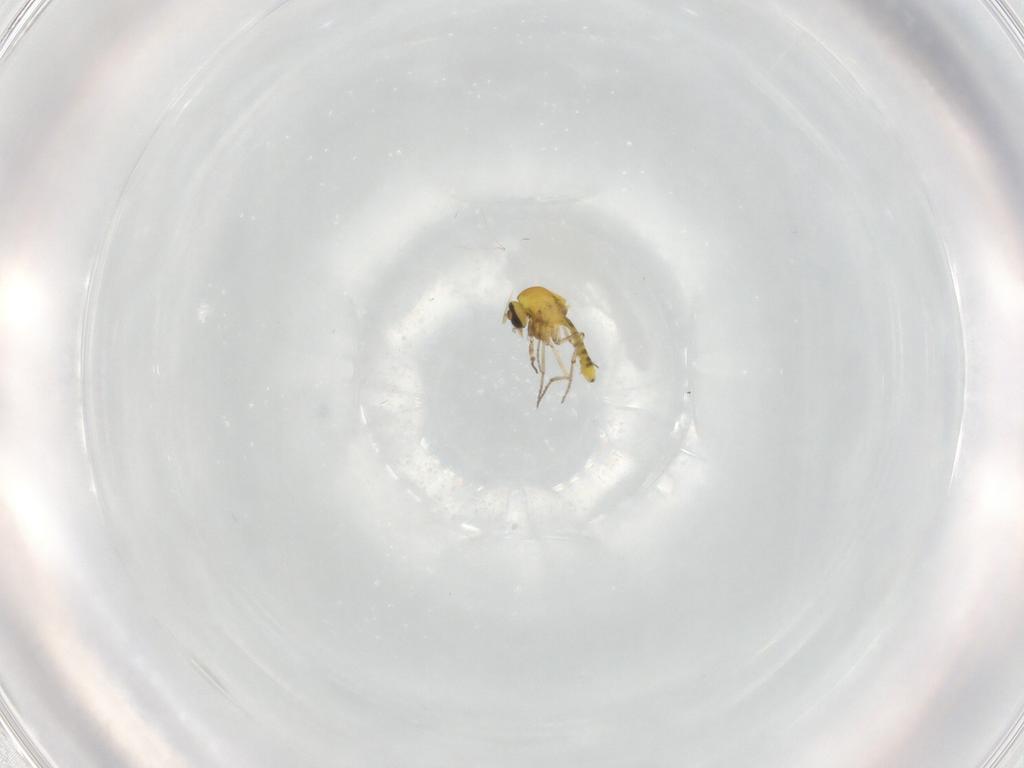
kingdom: Animalia
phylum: Arthropoda
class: Insecta
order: Diptera
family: Ceratopogonidae
